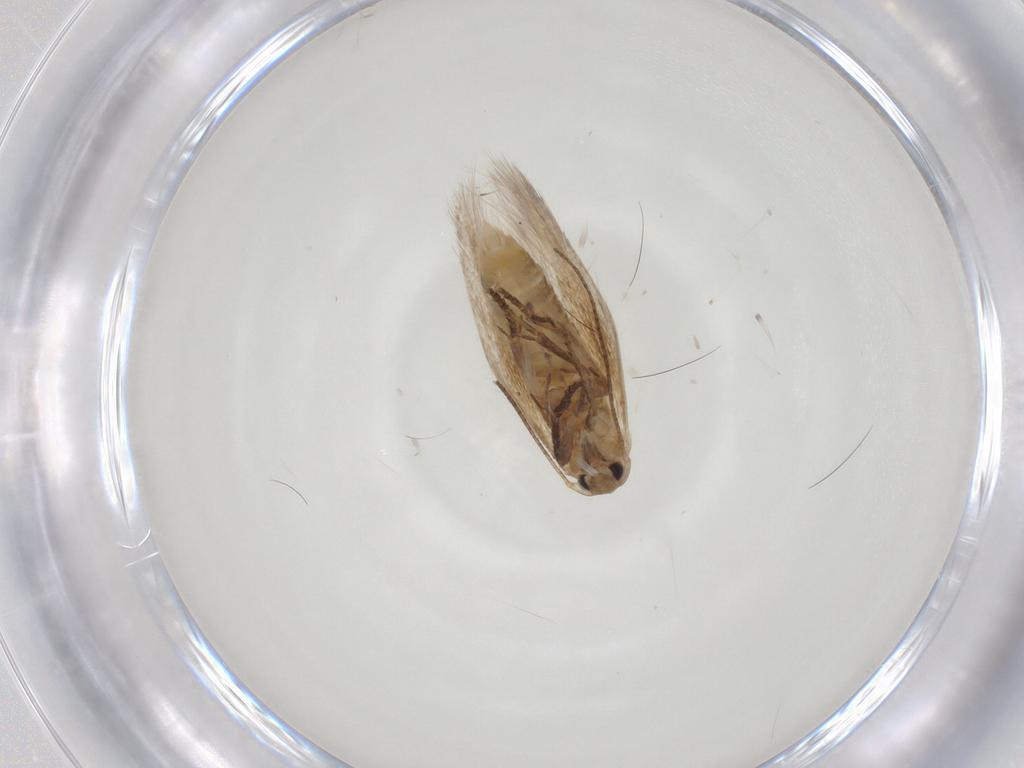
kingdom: Animalia
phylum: Arthropoda
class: Insecta
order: Lepidoptera
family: Bucculatricidae
